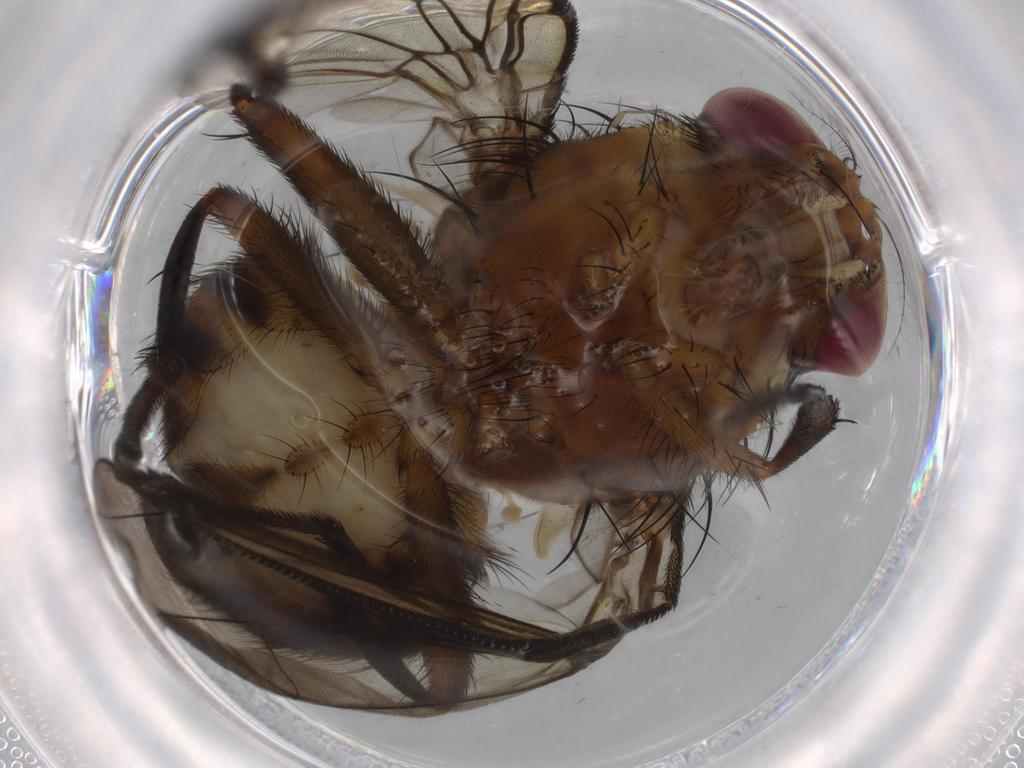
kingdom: Animalia
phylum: Arthropoda
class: Insecta
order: Diptera
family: Muscidae
